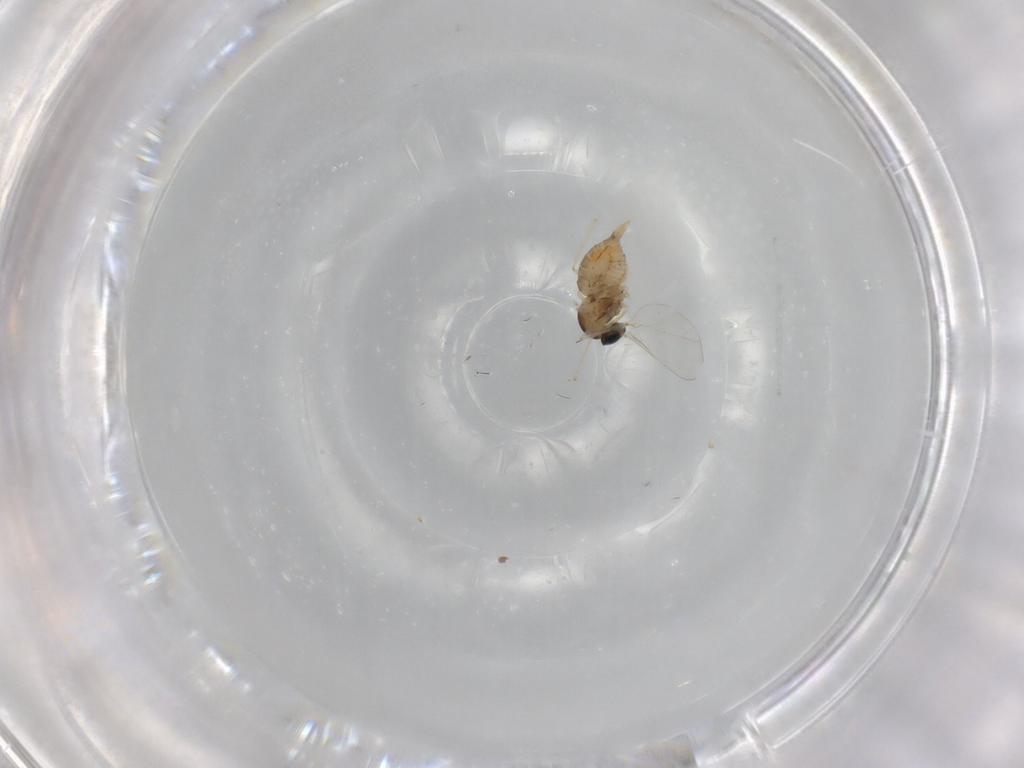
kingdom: Animalia
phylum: Arthropoda
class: Insecta
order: Diptera
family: Cecidomyiidae
